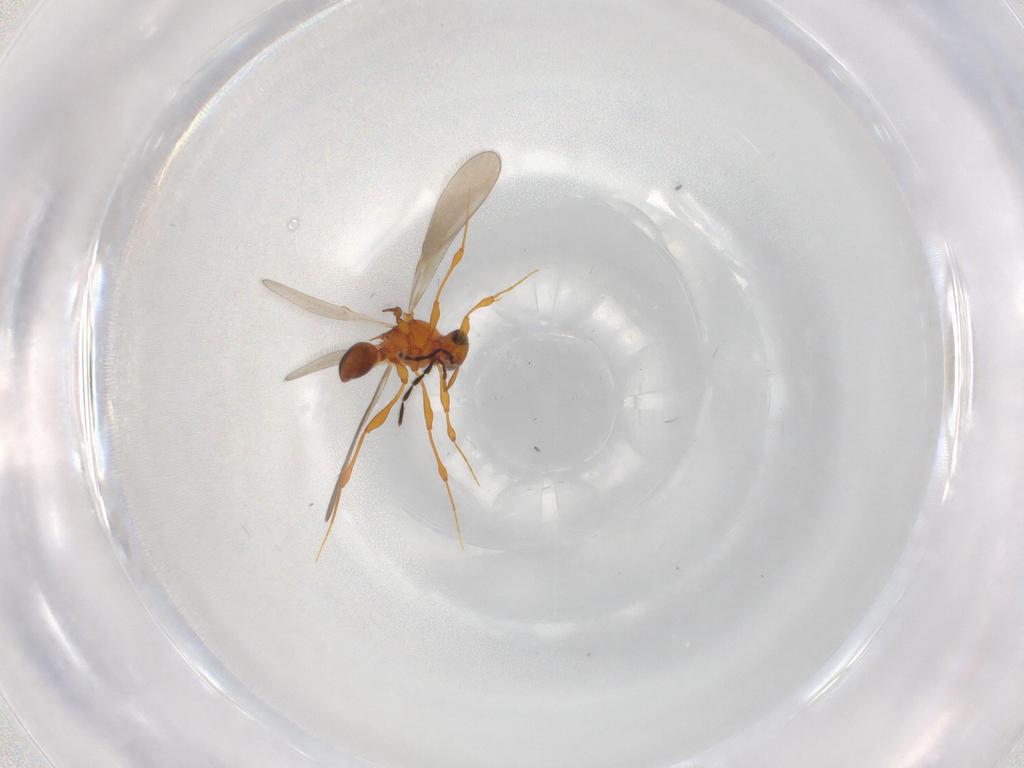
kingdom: Animalia
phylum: Arthropoda
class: Insecta
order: Hymenoptera
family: Platygastridae
